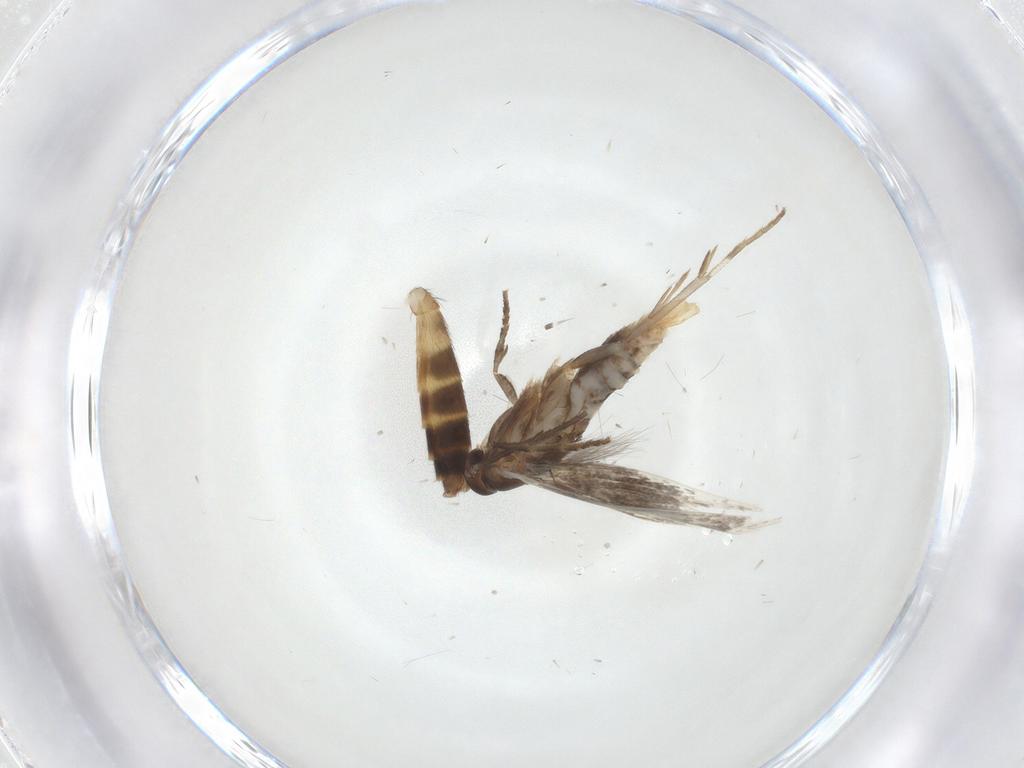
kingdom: Animalia
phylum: Arthropoda
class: Insecta
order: Lepidoptera
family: Elachistidae
